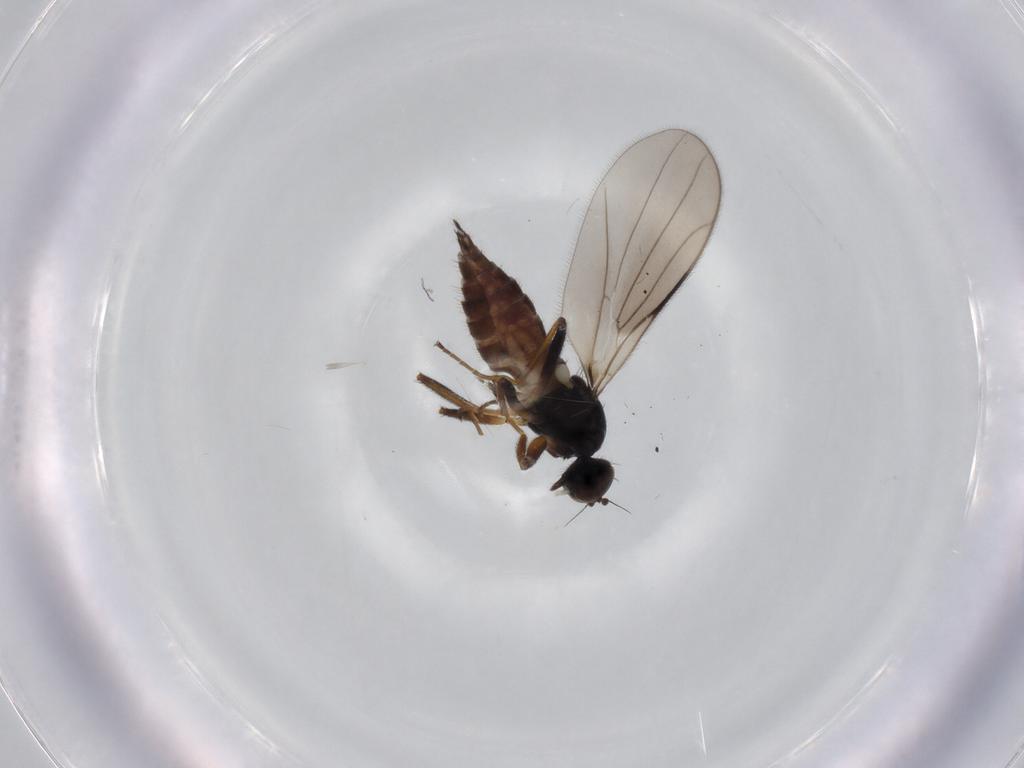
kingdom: Animalia
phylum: Arthropoda
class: Insecta
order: Diptera
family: Hybotidae
